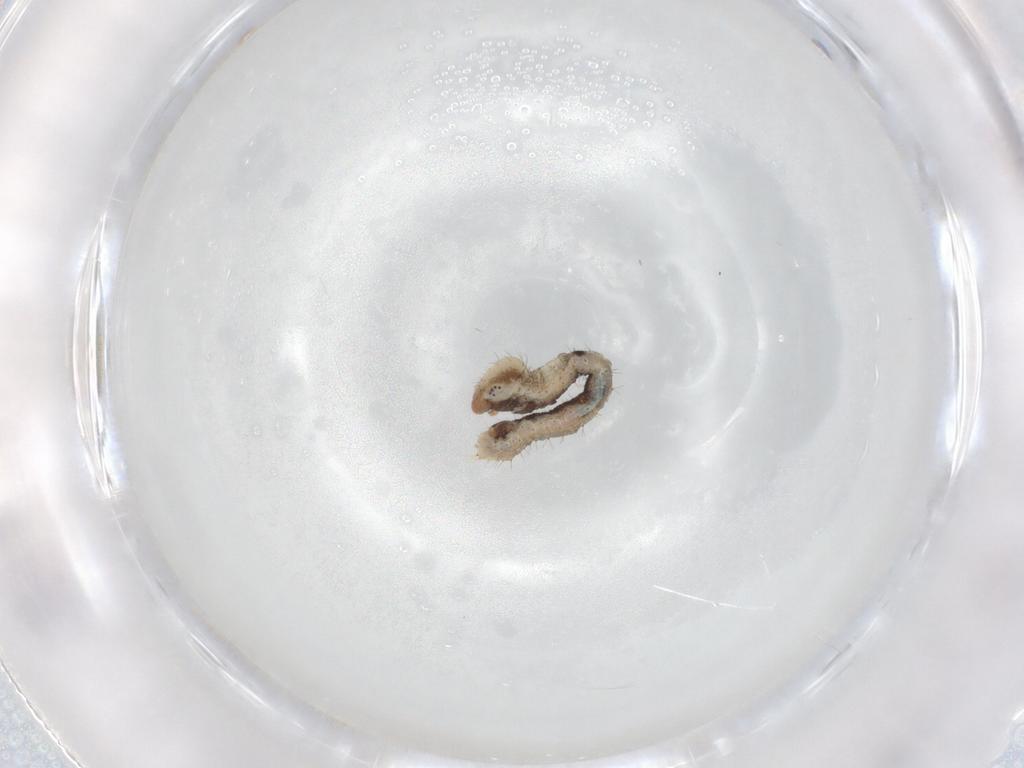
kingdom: Animalia
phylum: Arthropoda
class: Insecta
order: Lepidoptera
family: Geometridae
